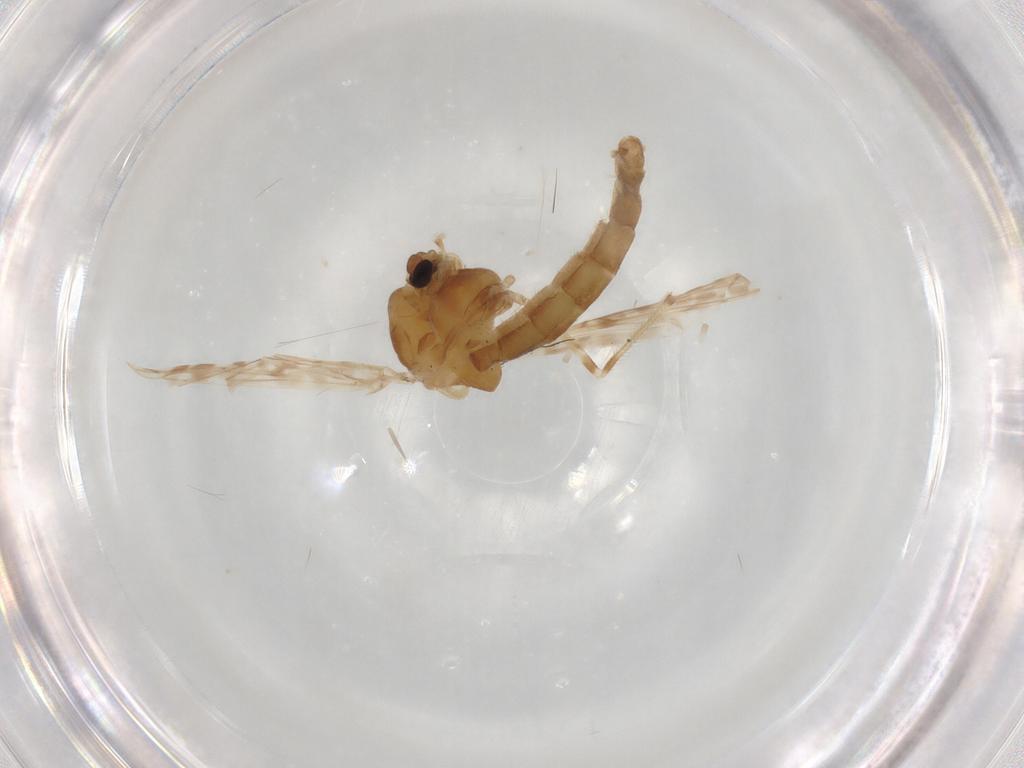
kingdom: Animalia
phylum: Arthropoda
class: Insecta
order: Diptera
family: Chironomidae
